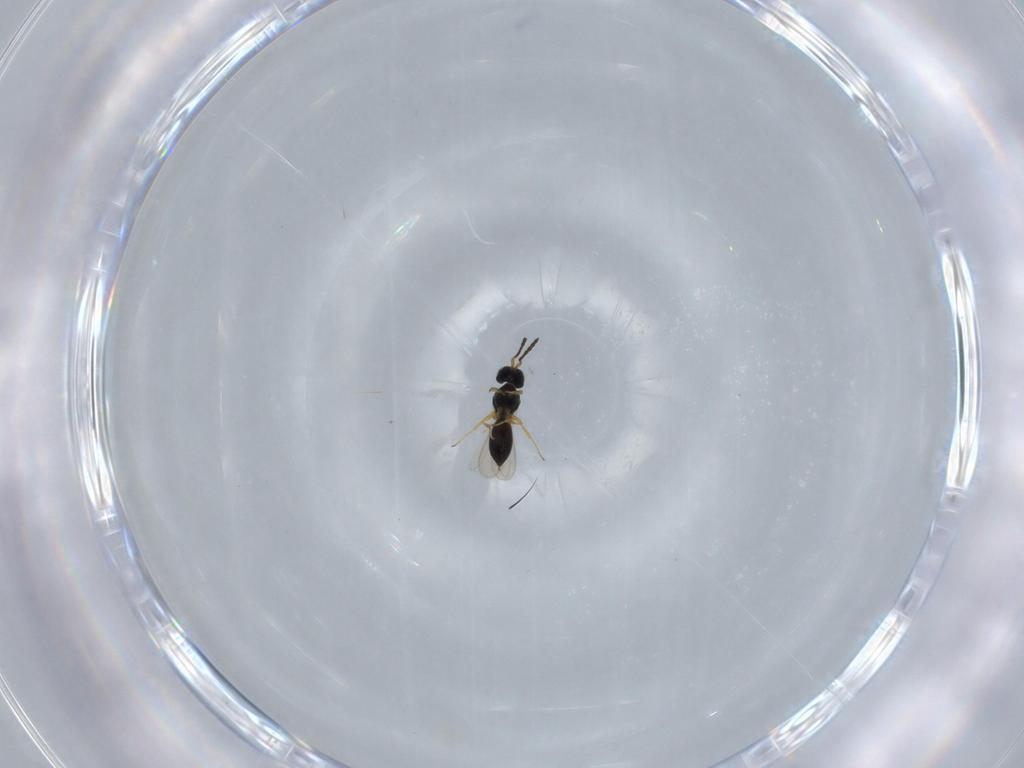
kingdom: Animalia
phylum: Arthropoda
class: Insecta
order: Hymenoptera
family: Scelionidae
